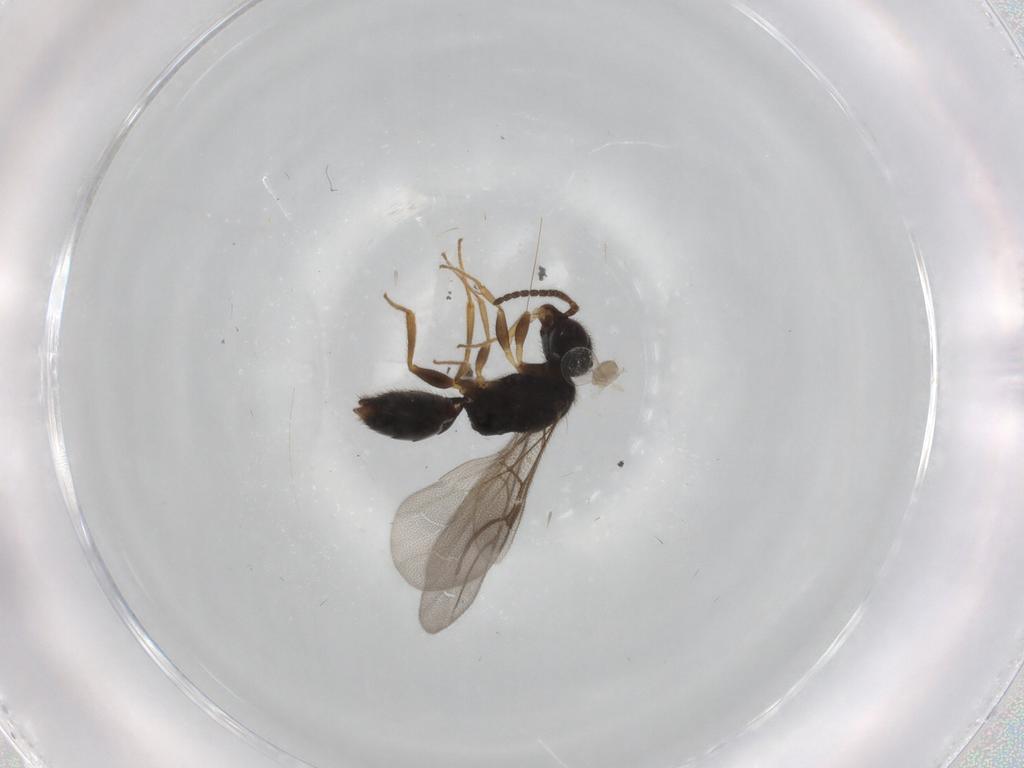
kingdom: Animalia
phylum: Arthropoda
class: Insecta
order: Hymenoptera
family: Bethylidae
